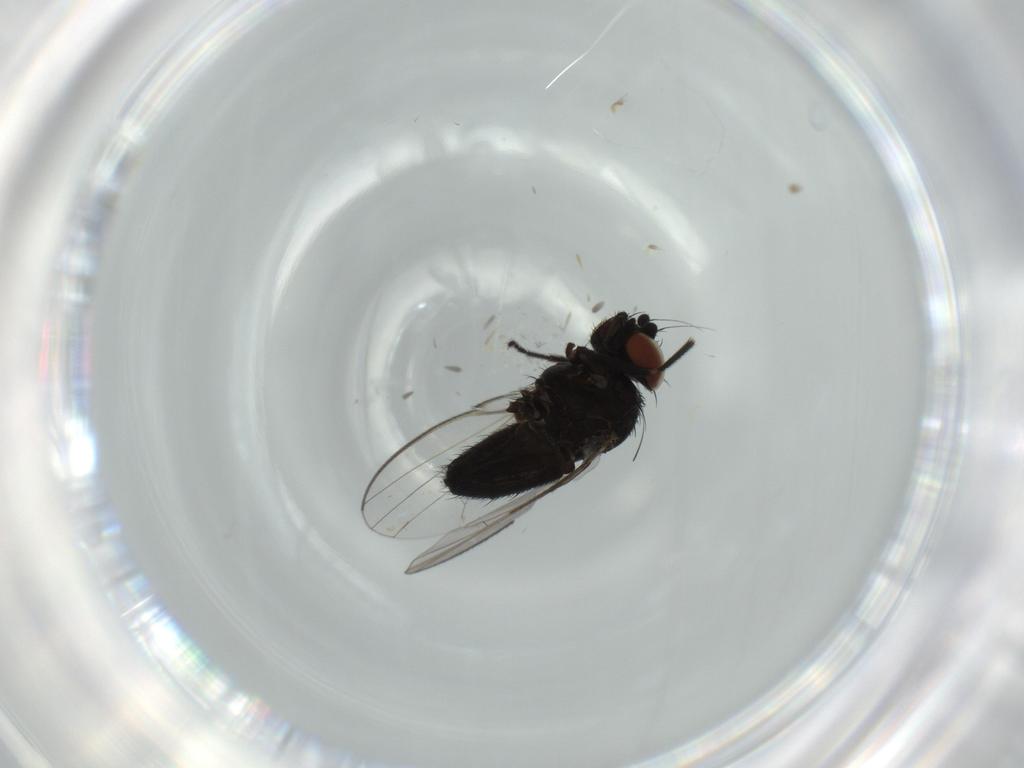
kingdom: Animalia
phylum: Arthropoda
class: Insecta
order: Diptera
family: Milichiidae
